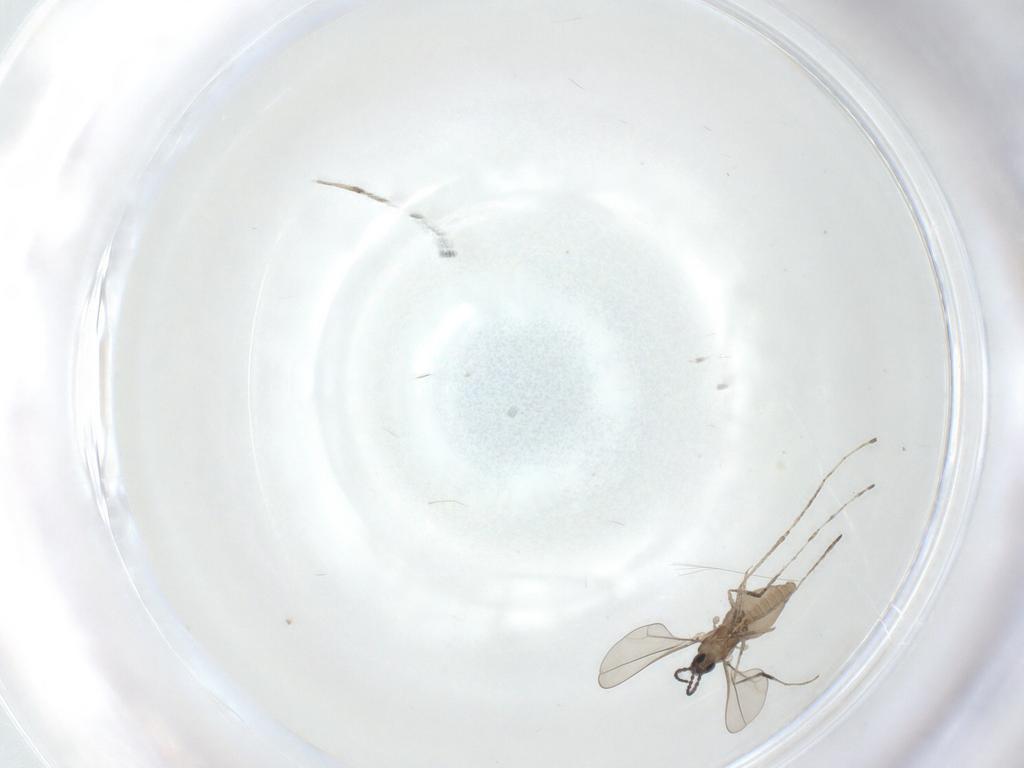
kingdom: Animalia
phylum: Arthropoda
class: Insecta
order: Diptera
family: Cecidomyiidae
